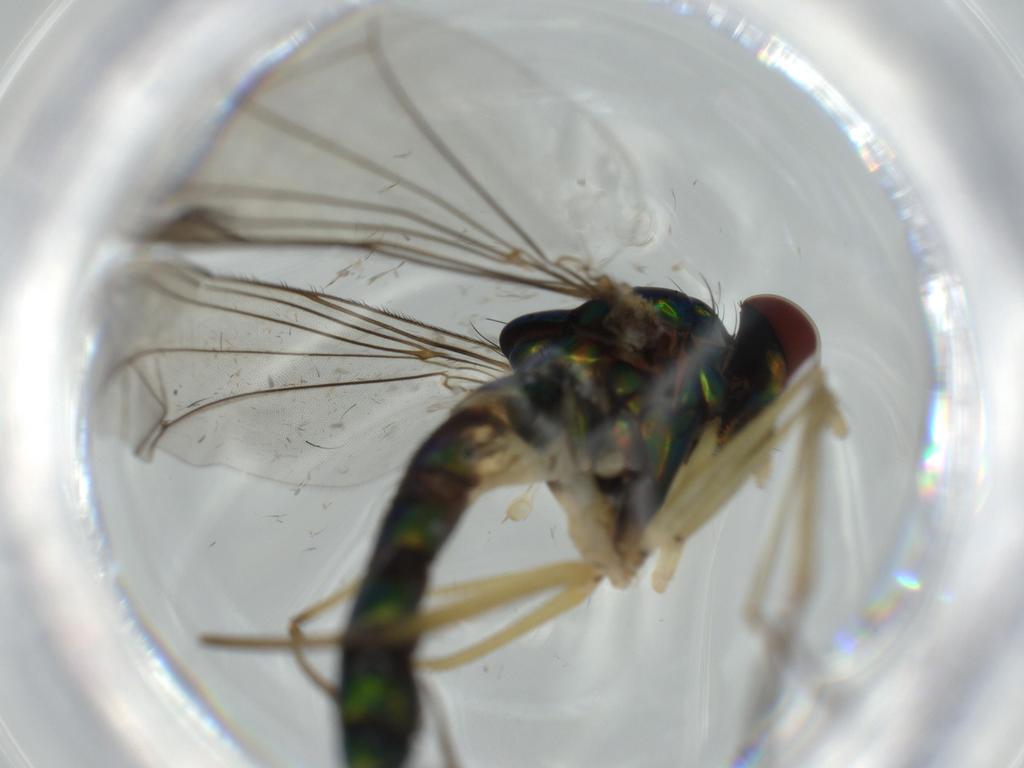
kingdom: Animalia
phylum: Arthropoda
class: Insecta
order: Diptera
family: Dolichopodidae
